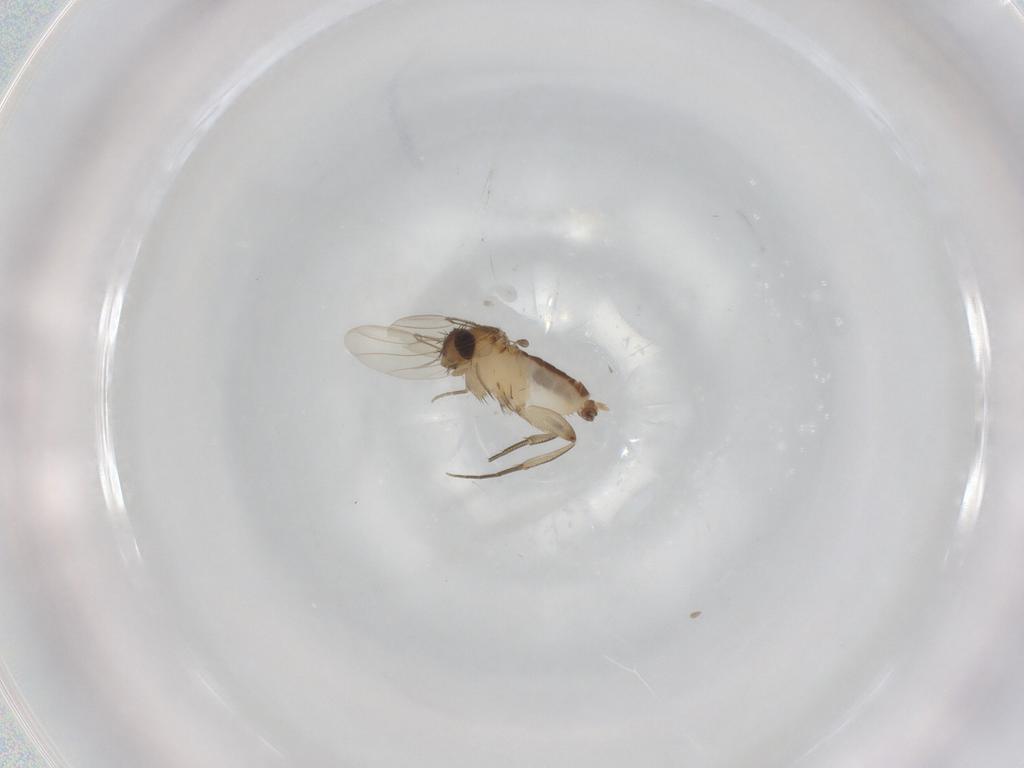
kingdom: Animalia
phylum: Arthropoda
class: Insecta
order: Diptera
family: Phoridae
